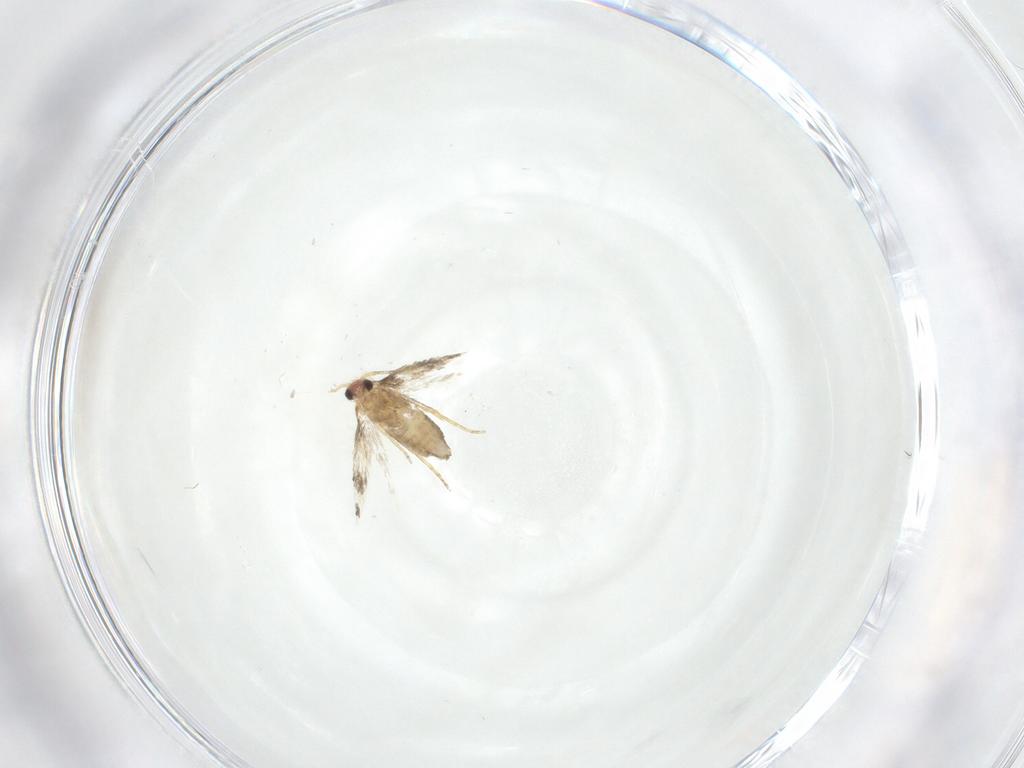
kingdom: Animalia
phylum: Arthropoda
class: Insecta
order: Lepidoptera
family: Nepticulidae
